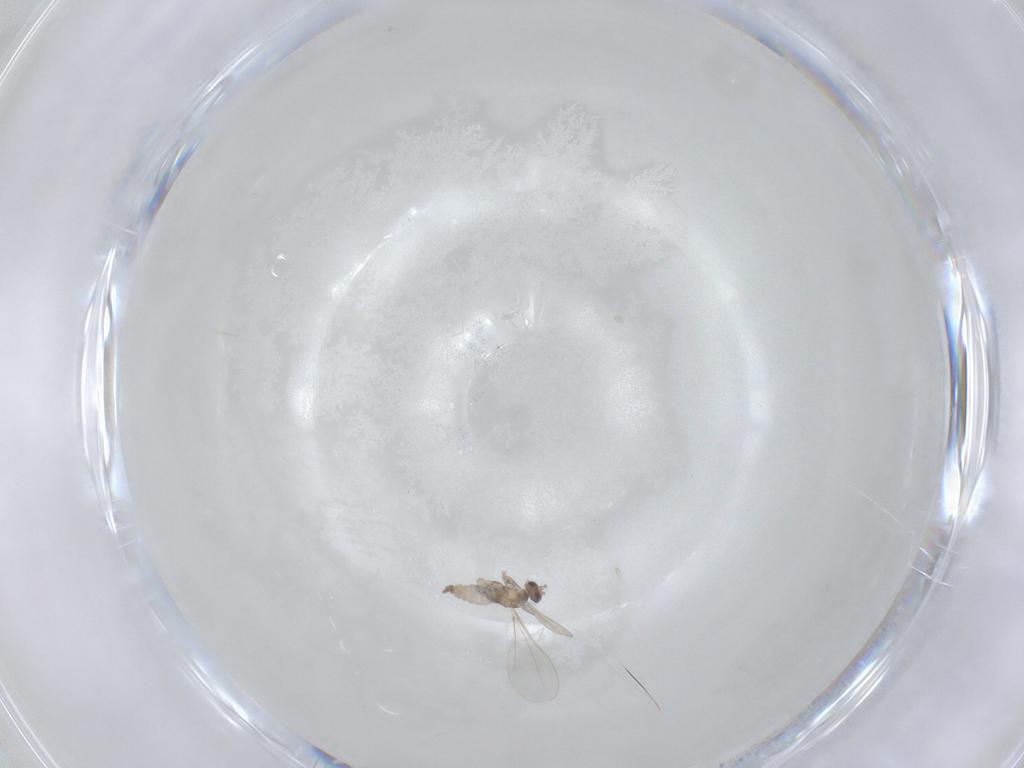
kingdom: Animalia
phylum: Arthropoda
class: Insecta
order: Diptera
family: Cecidomyiidae
